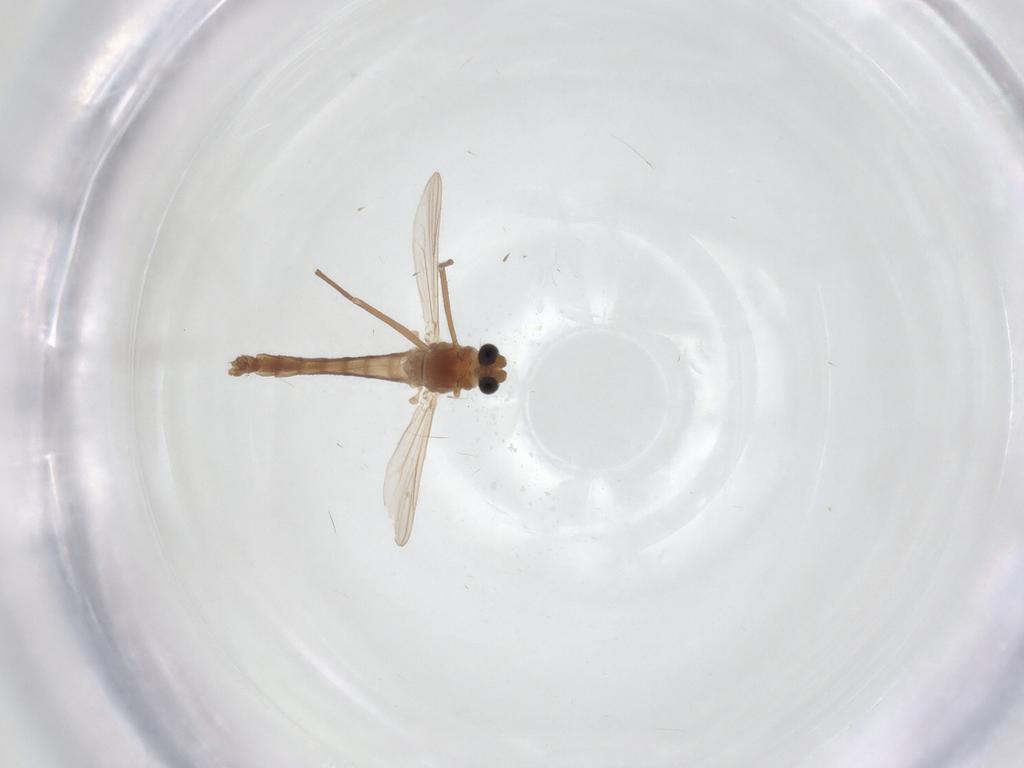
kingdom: Animalia
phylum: Arthropoda
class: Insecta
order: Diptera
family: Chironomidae
